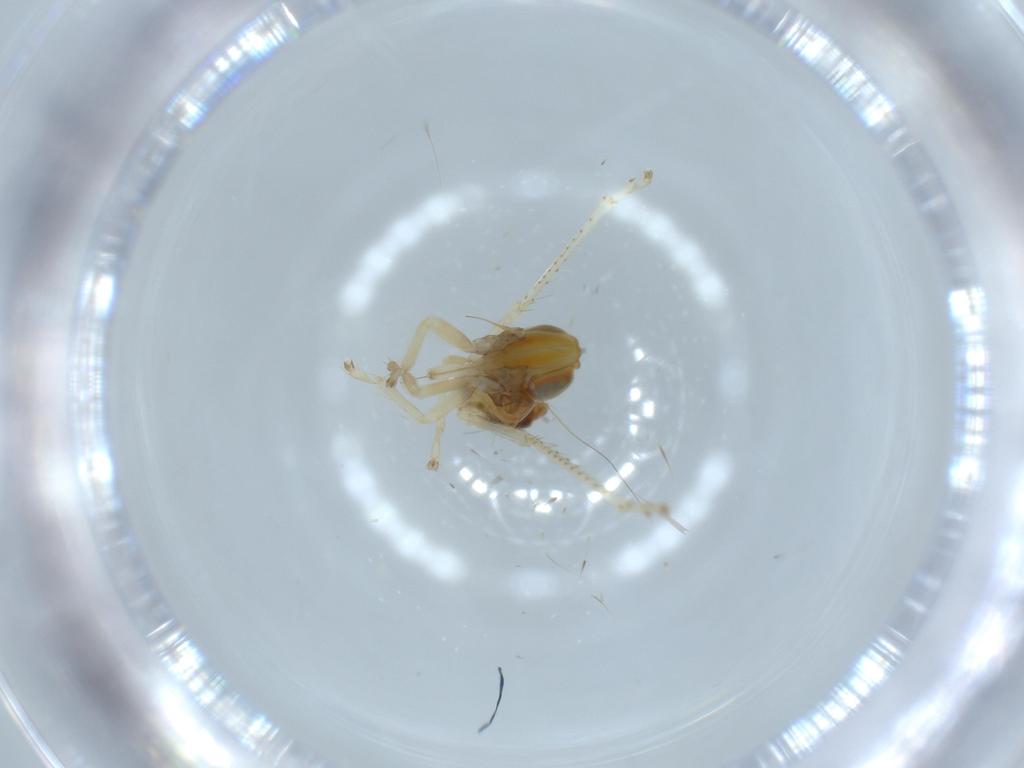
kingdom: Animalia
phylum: Arthropoda
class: Insecta
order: Hemiptera
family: Cicadellidae
